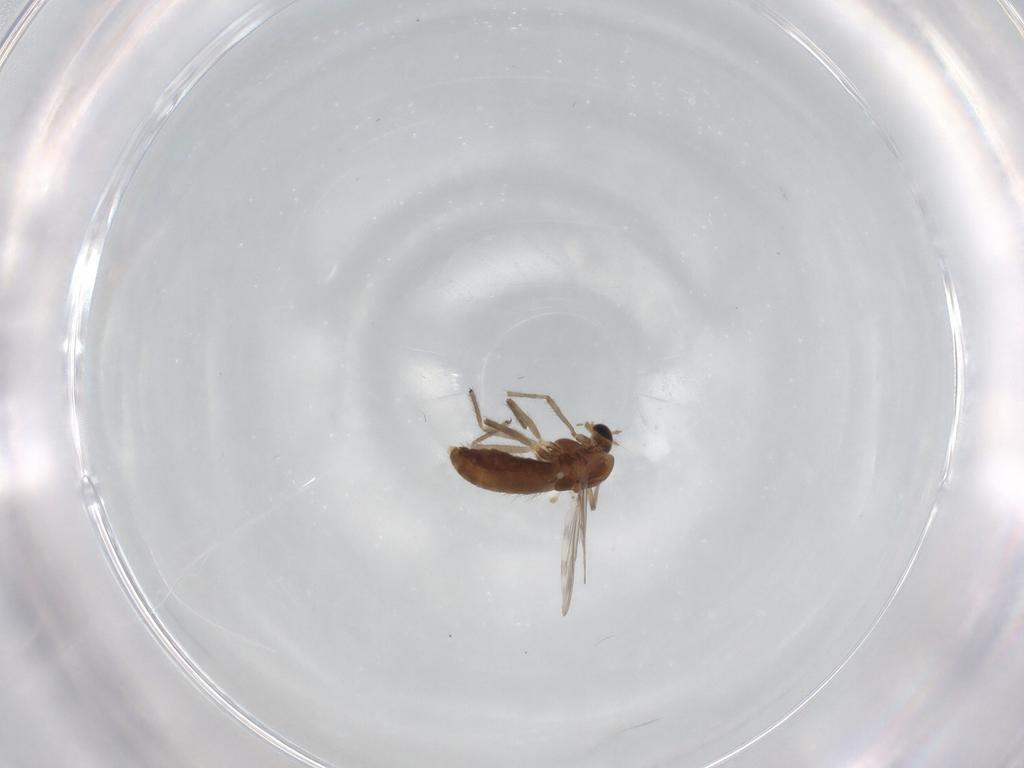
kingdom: Animalia
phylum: Arthropoda
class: Insecta
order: Diptera
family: Chironomidae
